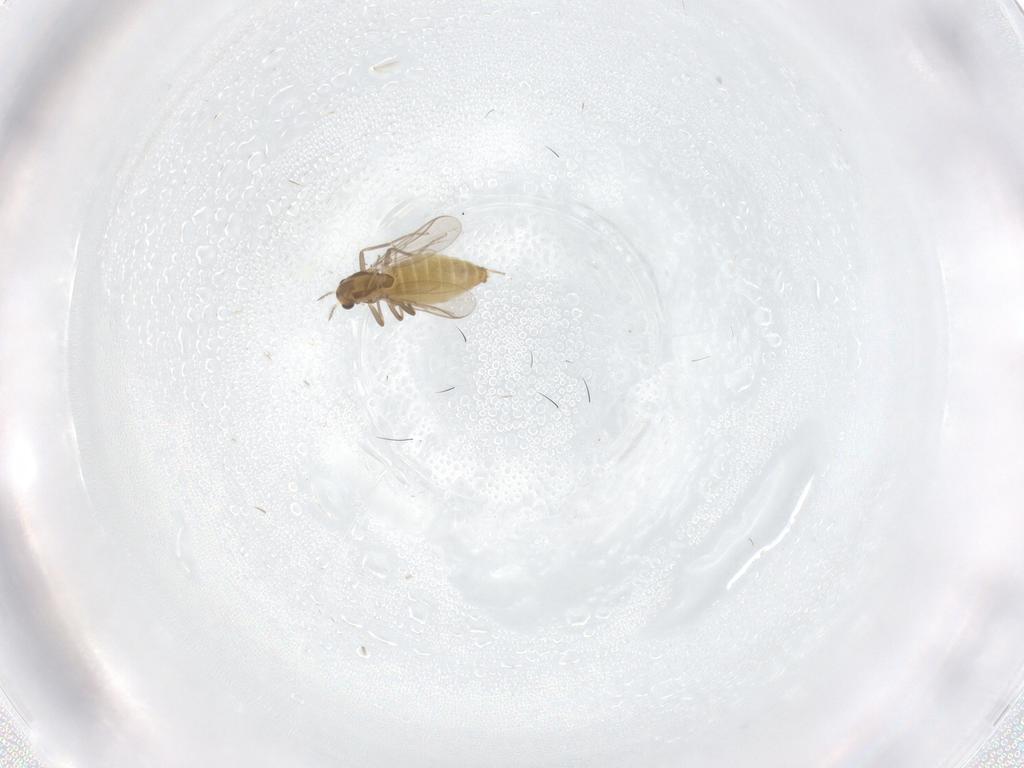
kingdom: Animalia
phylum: Arthropoda
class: Insecta
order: Diptera
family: Chironomidae
